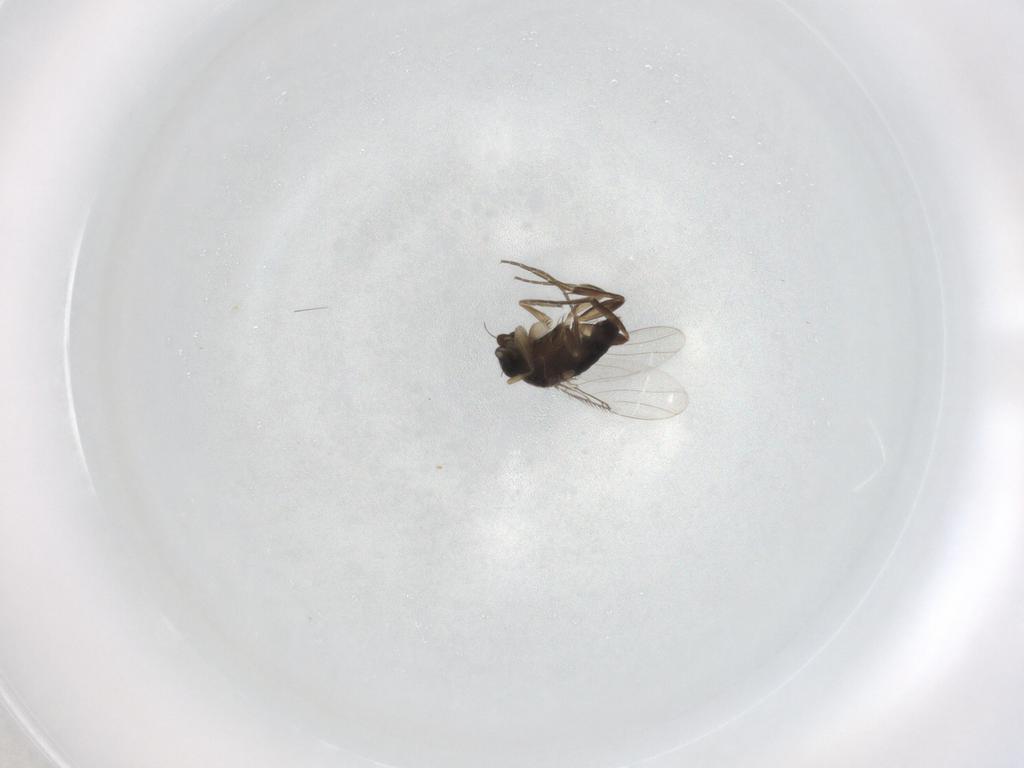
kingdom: Animalia
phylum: Arthropoda
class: Insecta
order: Diptera
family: Phoridae
